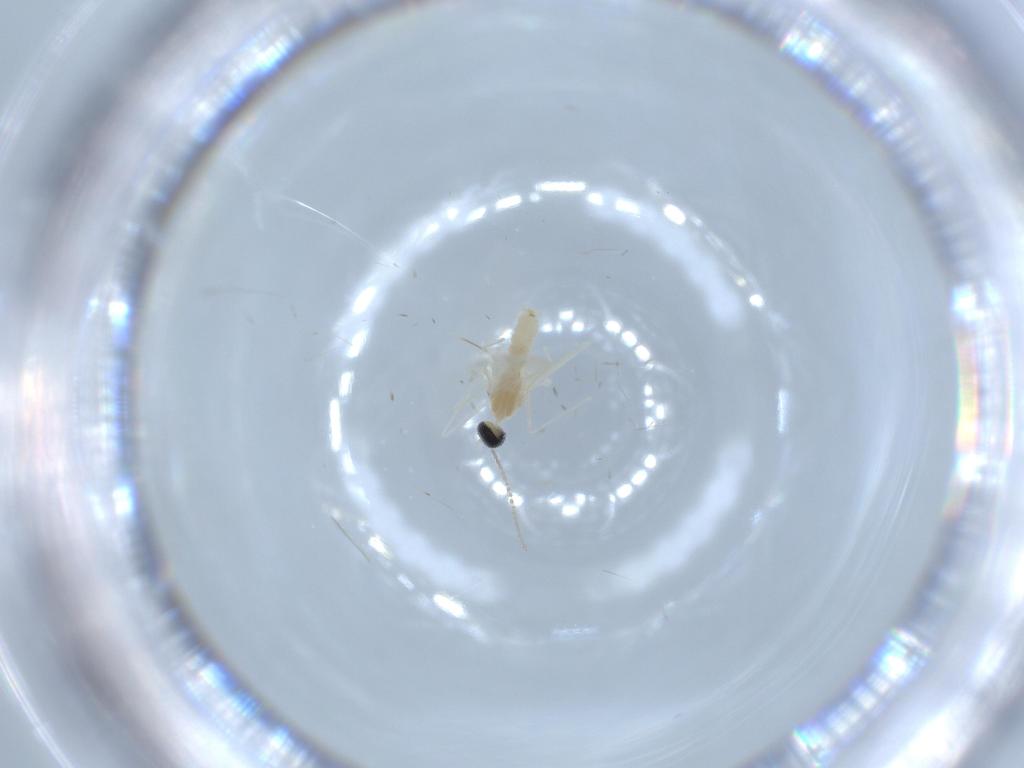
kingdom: Animalia
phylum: Arthropoda
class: Insecta
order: Diptera
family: Cecidomyiidae
